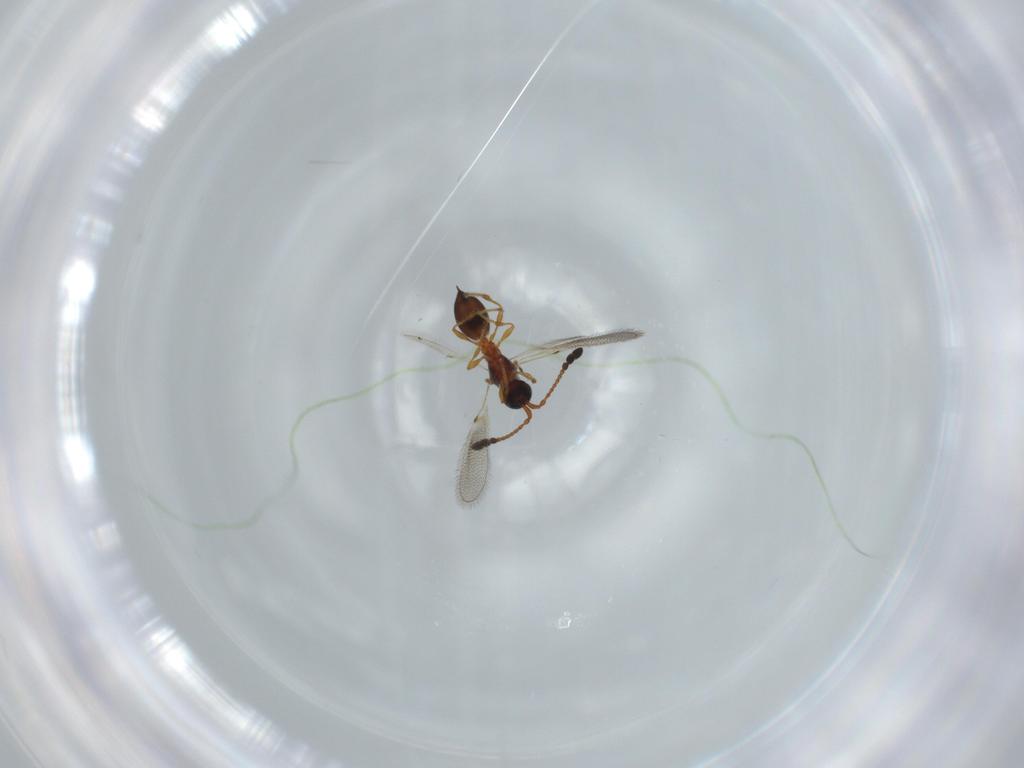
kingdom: Animalia
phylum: Arthropoda
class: Insecta
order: Hymenoptera
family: Diapriidae
